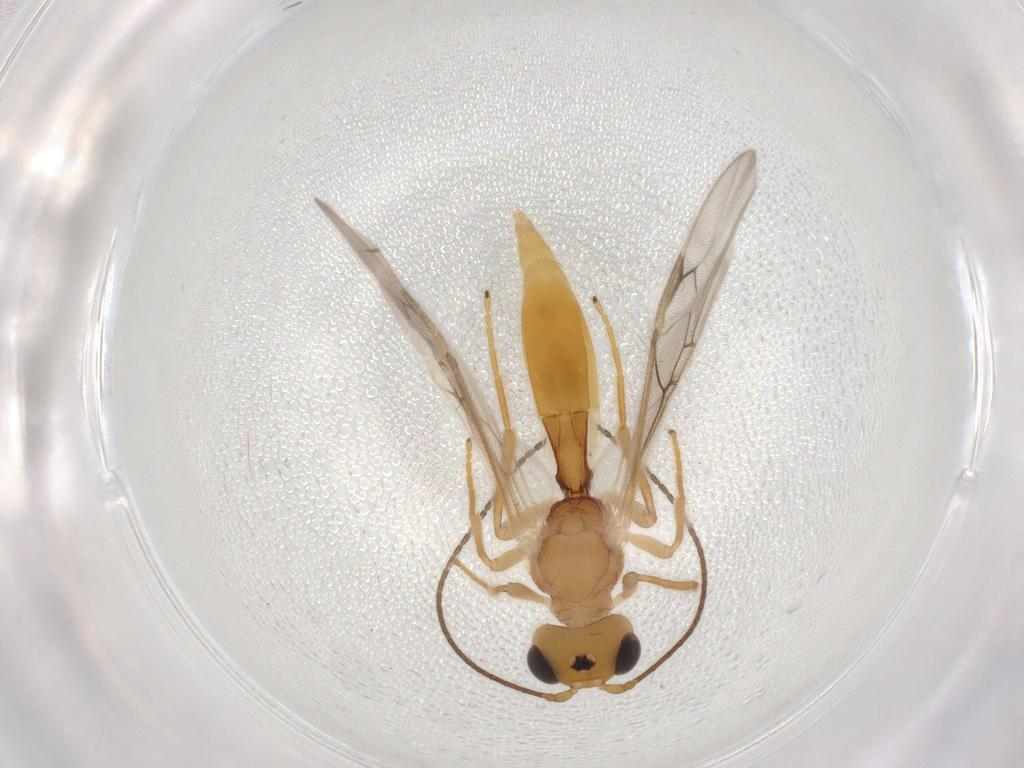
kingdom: Animalia
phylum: Arthropoda
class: Insecta
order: Hymenoptera
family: Braconidae
